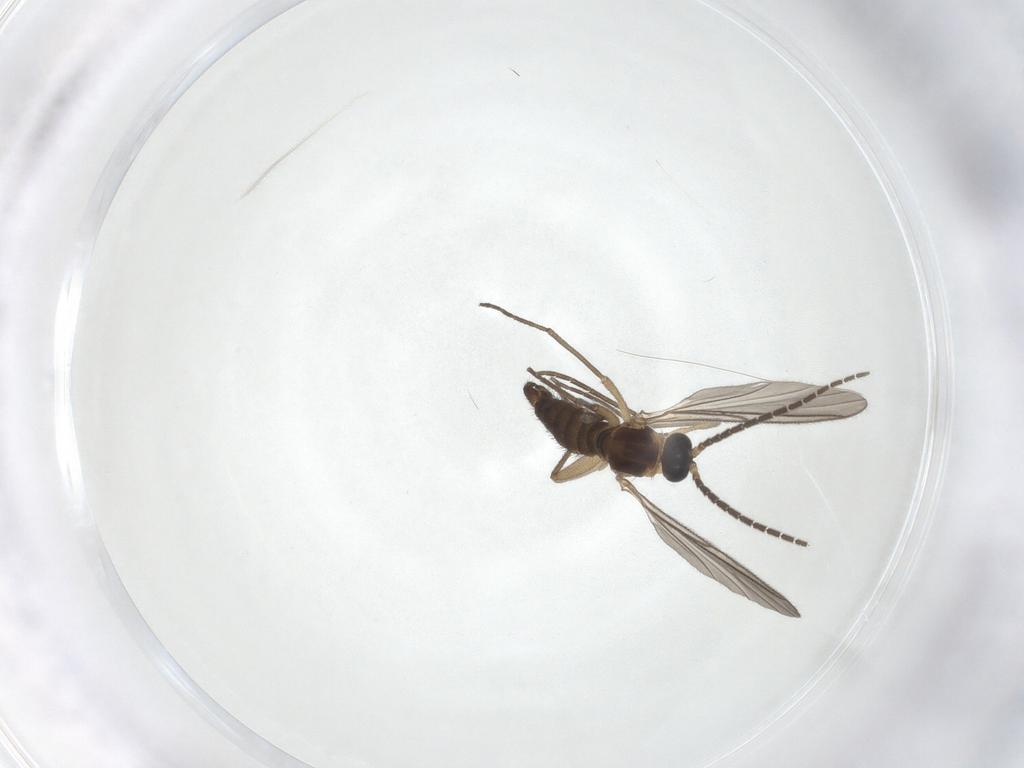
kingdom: Animalia
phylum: Arthropoda
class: Insecta
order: Diptera
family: Sciaridae
